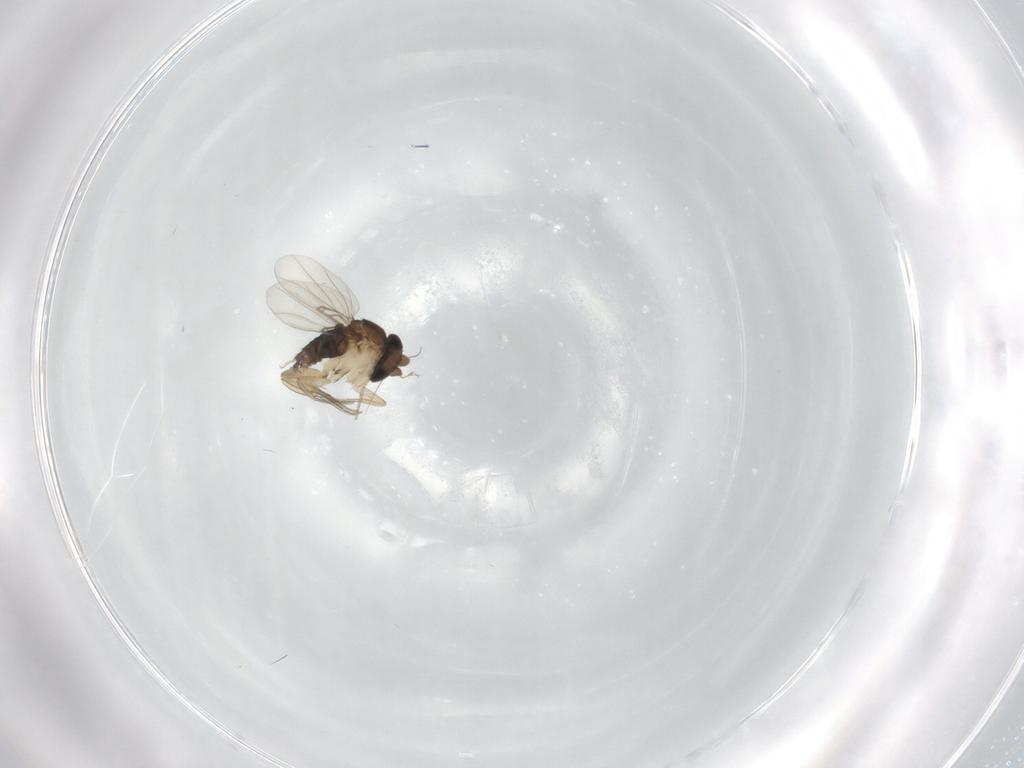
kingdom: Animalia
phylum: Arthropoda
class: Insecta
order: Diptera
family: Phoridae
